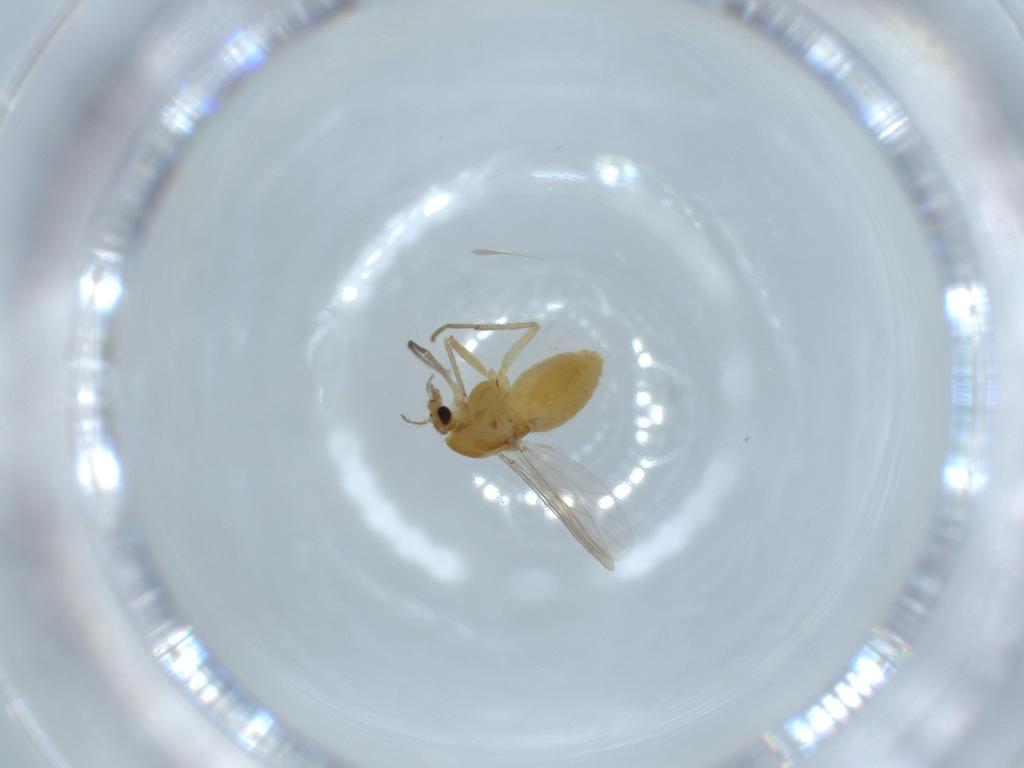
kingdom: Animalia
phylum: Arthropoda
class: Insecta
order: Diptera
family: Chironomidae
